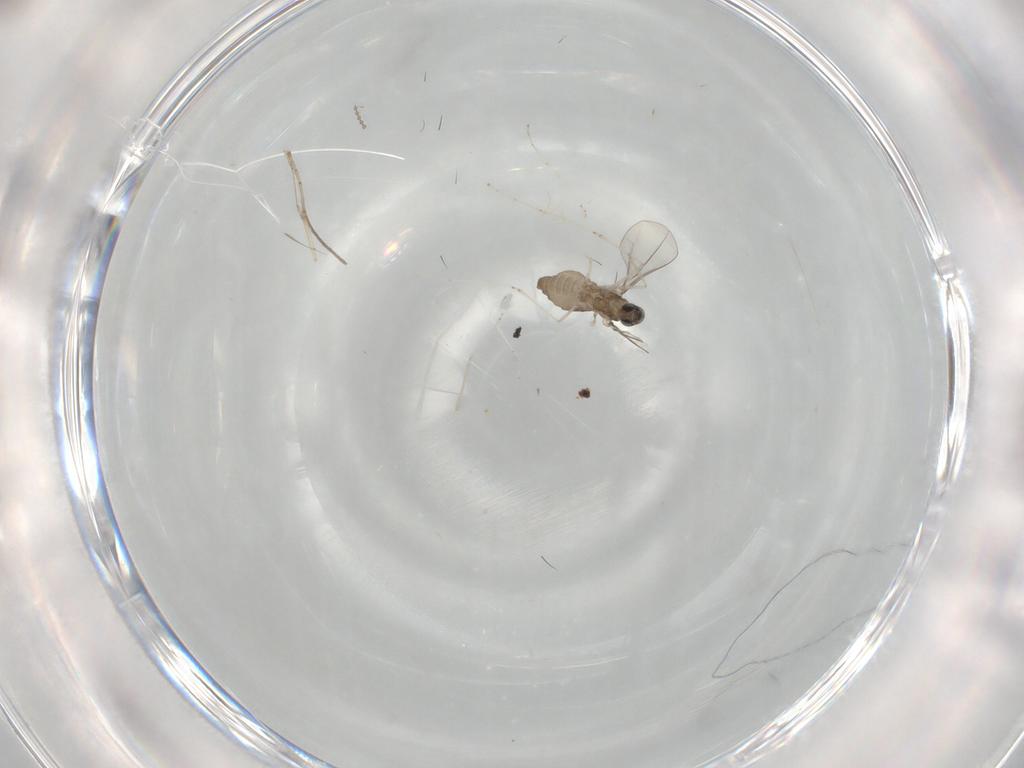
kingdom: Animalia
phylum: Arthropoda
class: Insecta
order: Diptera
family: Cecidomyiidae
